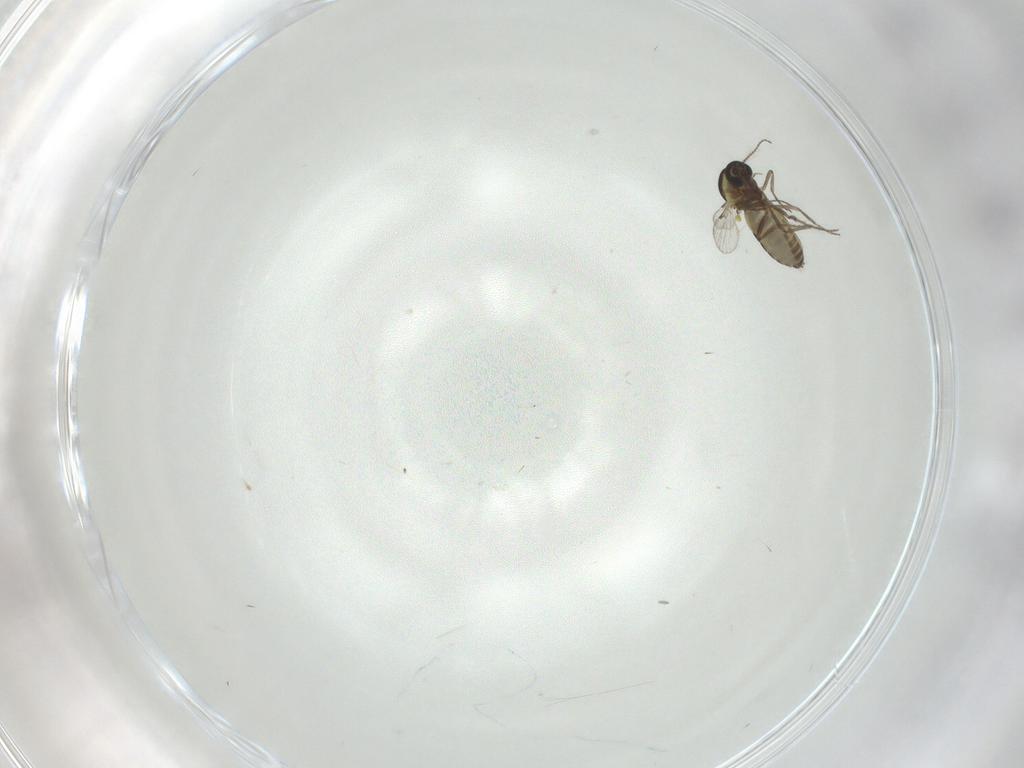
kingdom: Animalia
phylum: Arthropoda
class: Insecta
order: Diptera
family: Ceratopogonidae
